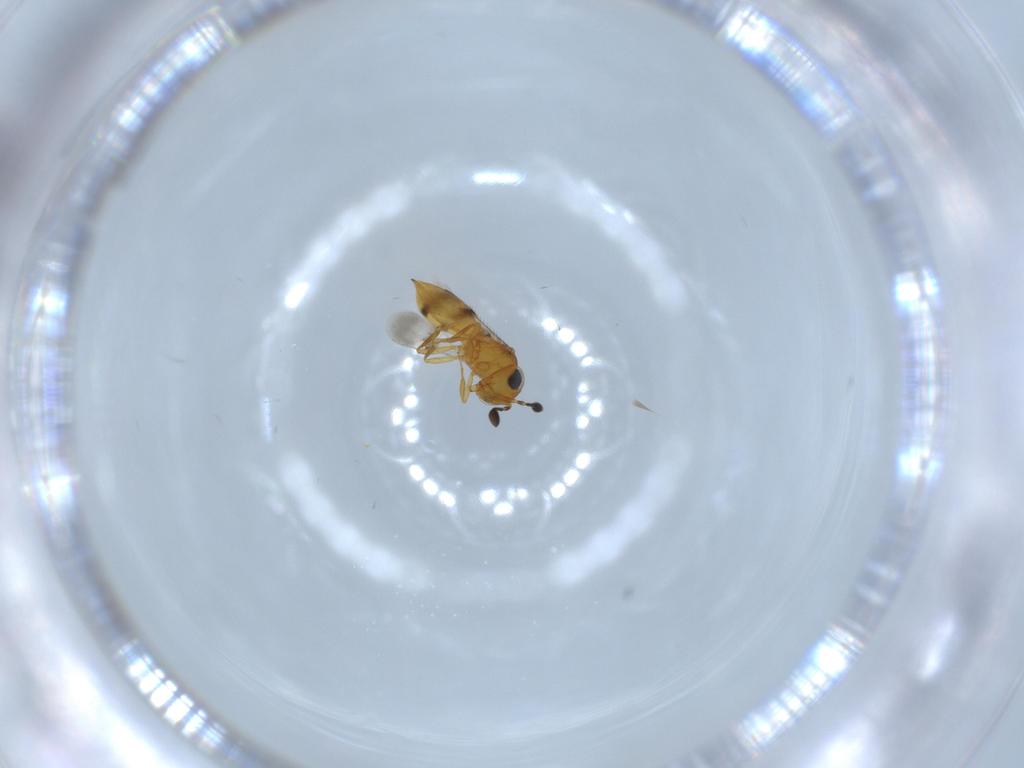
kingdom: Animalia
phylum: Arthropoda
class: Insecta
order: Hymenoptera
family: Scelionidae
